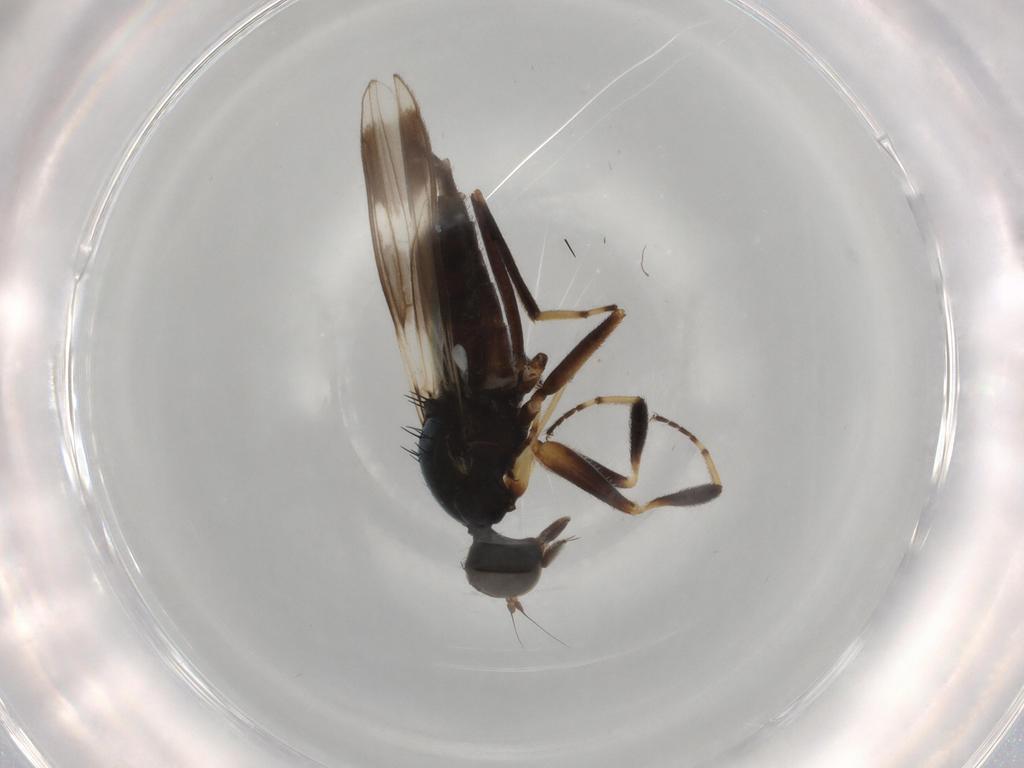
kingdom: Animalia
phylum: Arthropoda
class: Insecta
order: Diptera
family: Hybotidae
